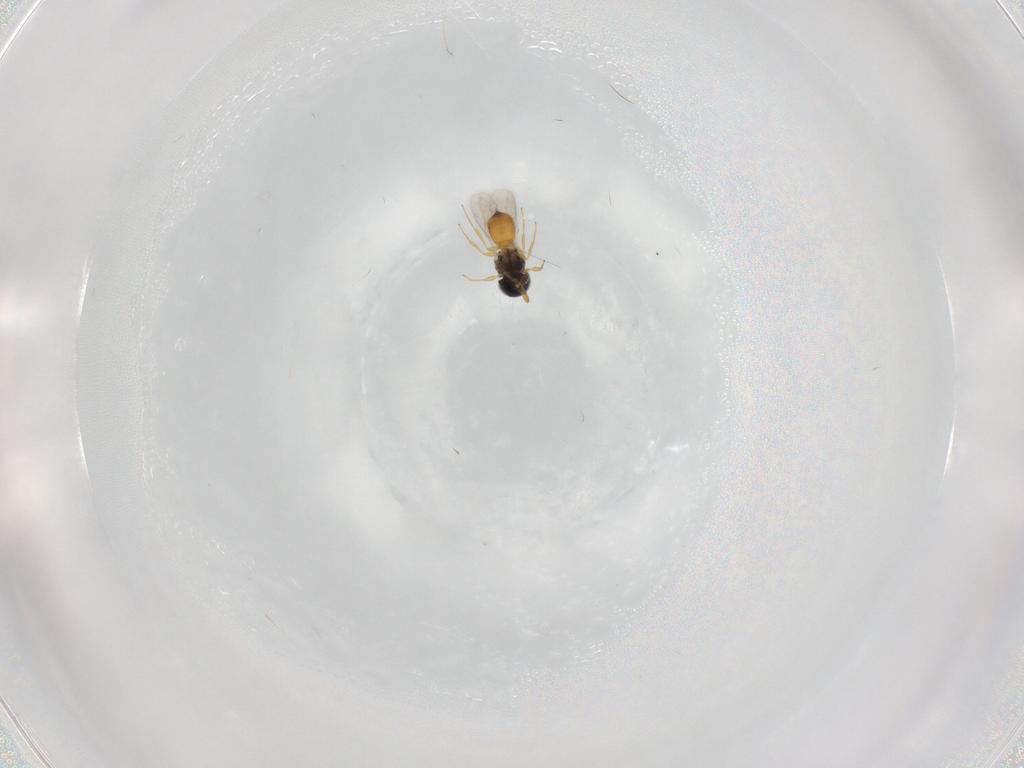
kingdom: Animalia
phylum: Arthropoda
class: Insecta
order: Hymenoptera
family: Scelionidae
